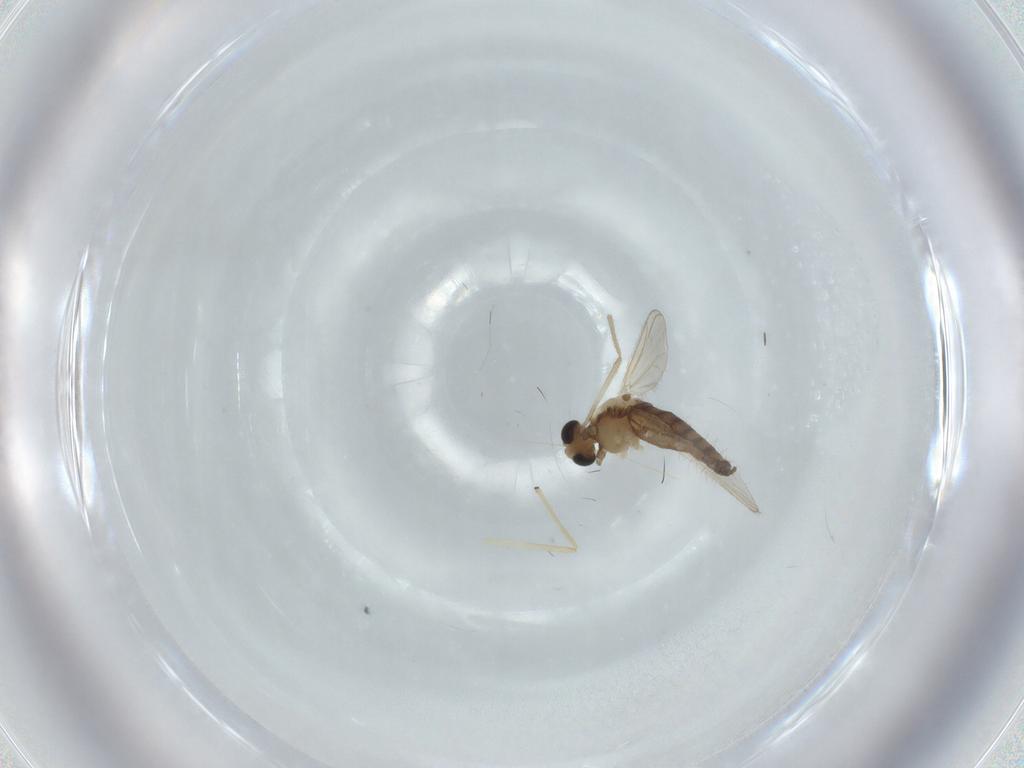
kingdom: Animalia
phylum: Arthropoda
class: Insecta
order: Diptera
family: Chironomidae
